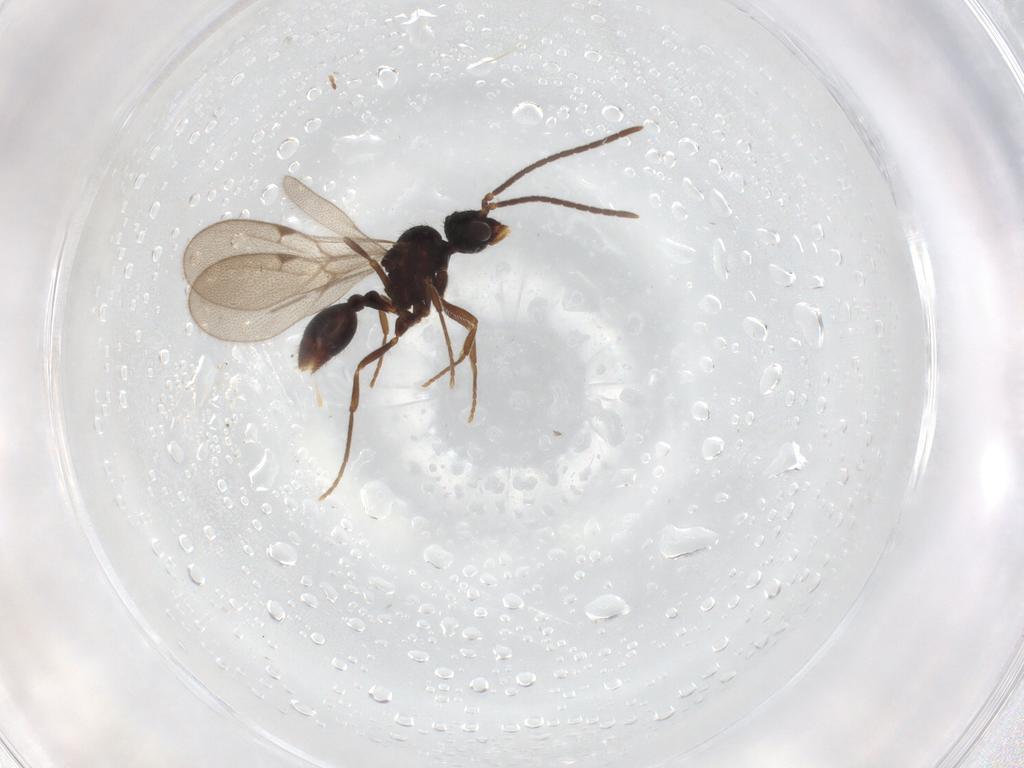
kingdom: Animalia
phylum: Arthropoda
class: Insecta
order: Hymenoptera
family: Formicidae
